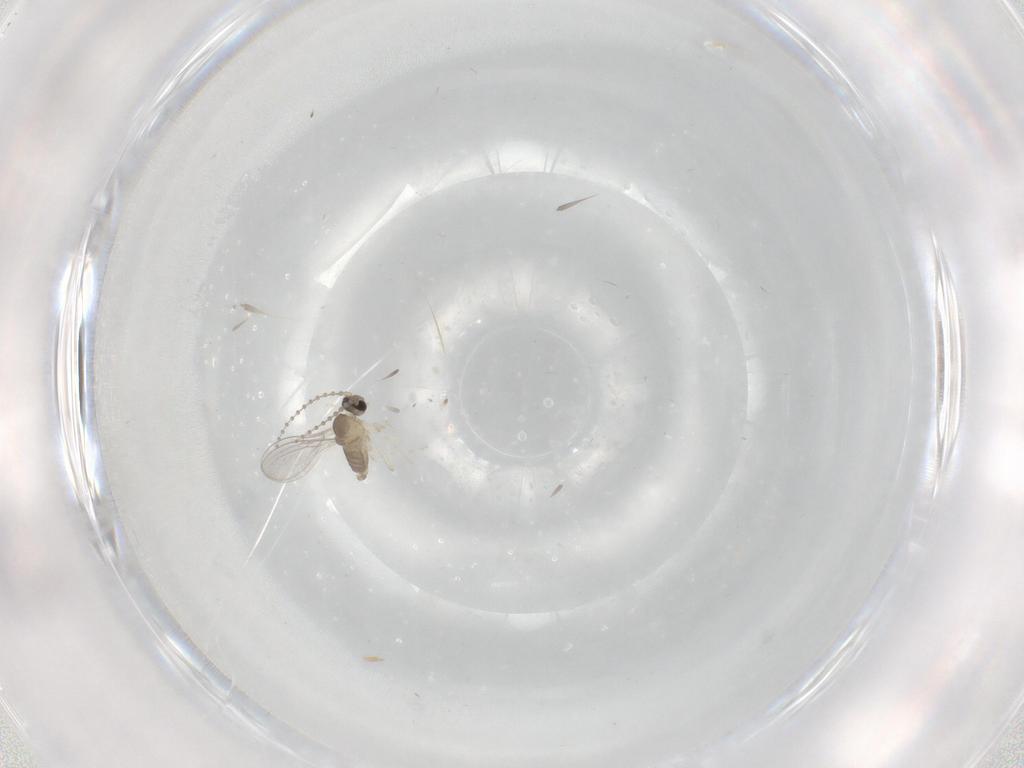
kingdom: Animalia
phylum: Arthropoda
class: Insecta
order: Diptera
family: Cecidomyiidae
